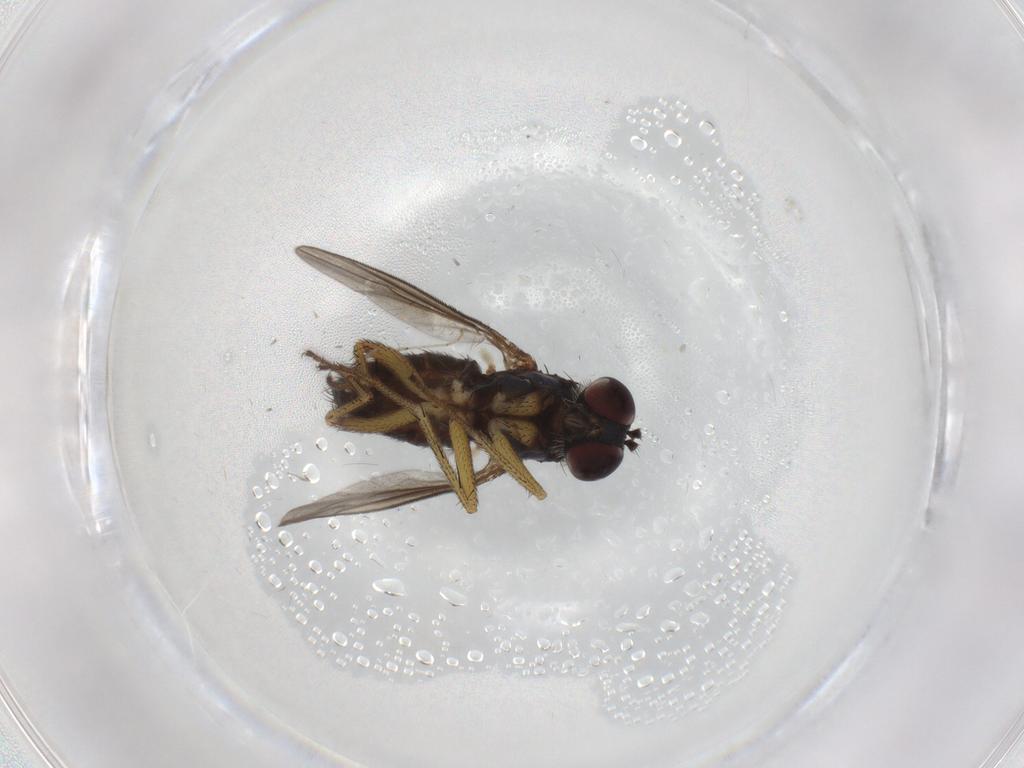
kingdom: Animalia
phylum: Arthropoda
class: Insecta
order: Diptera
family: Dolichopodidae
